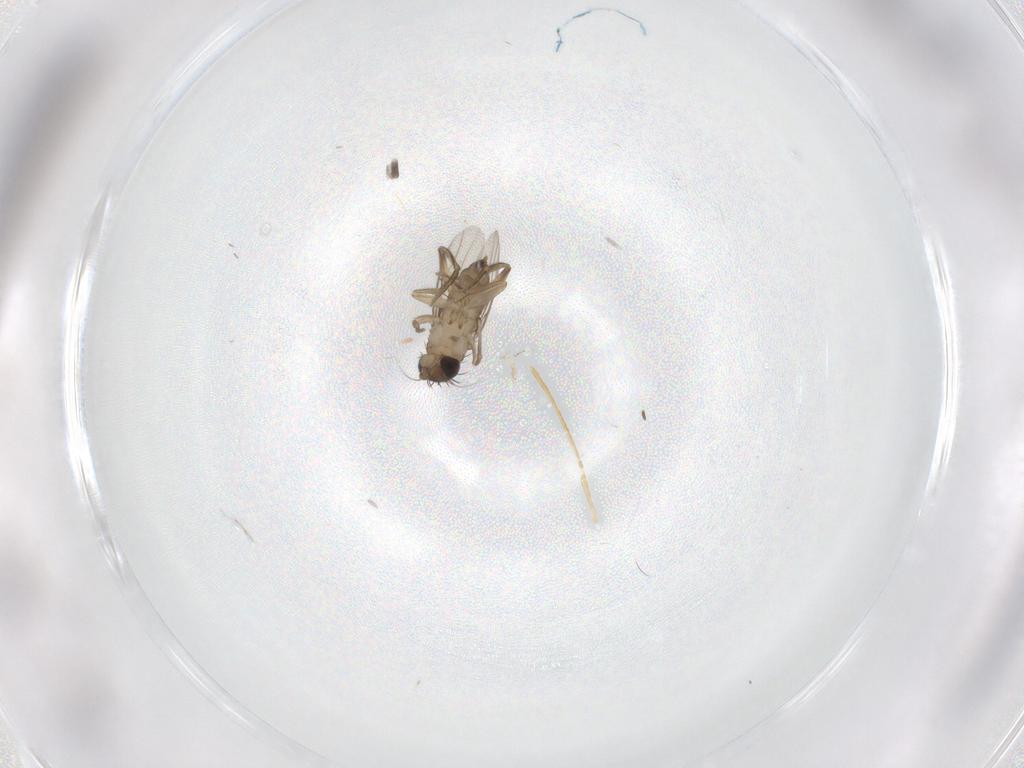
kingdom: Animalia
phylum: Arthropoda
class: Insecta
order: Diptera
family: Phoridae
